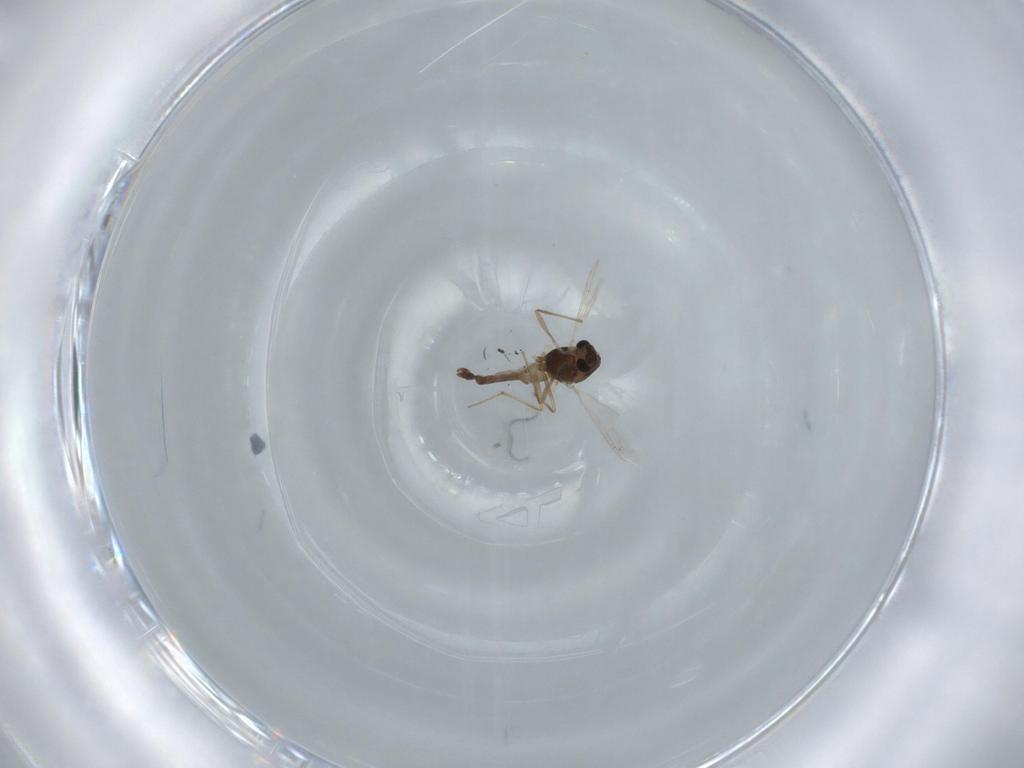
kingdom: Animalia
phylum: Arthropoda
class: Insecta
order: Diptera
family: Chironomidae
